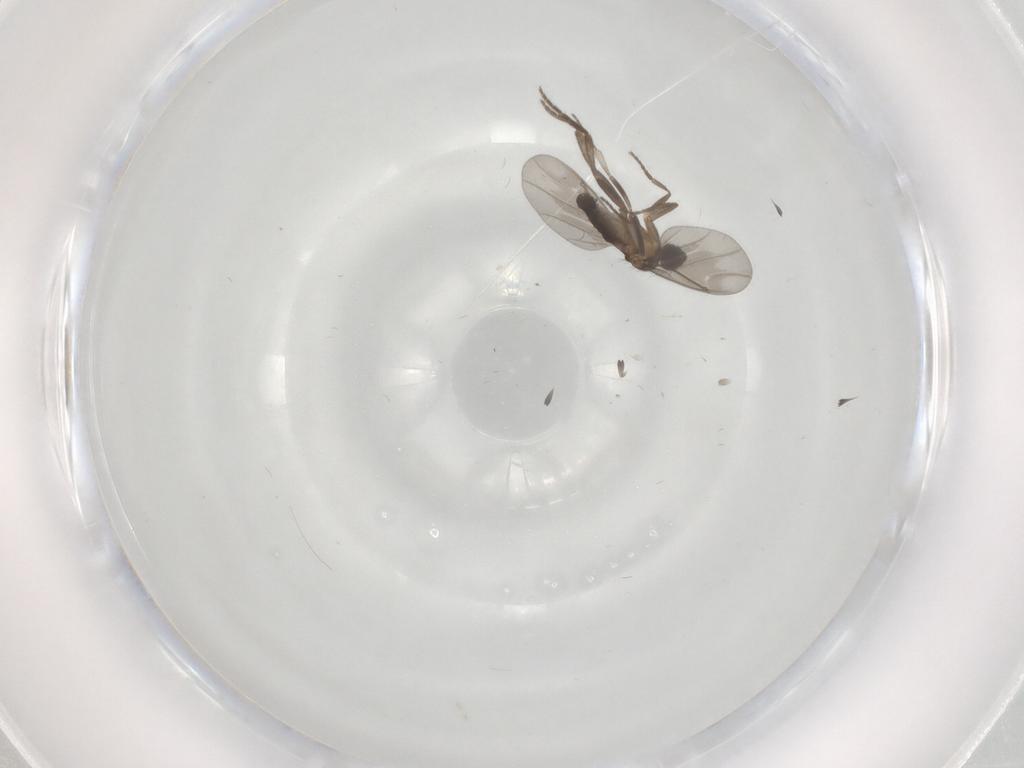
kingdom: Animalia
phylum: Arthropoda
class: Insecta
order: Diptera
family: Phoridae
